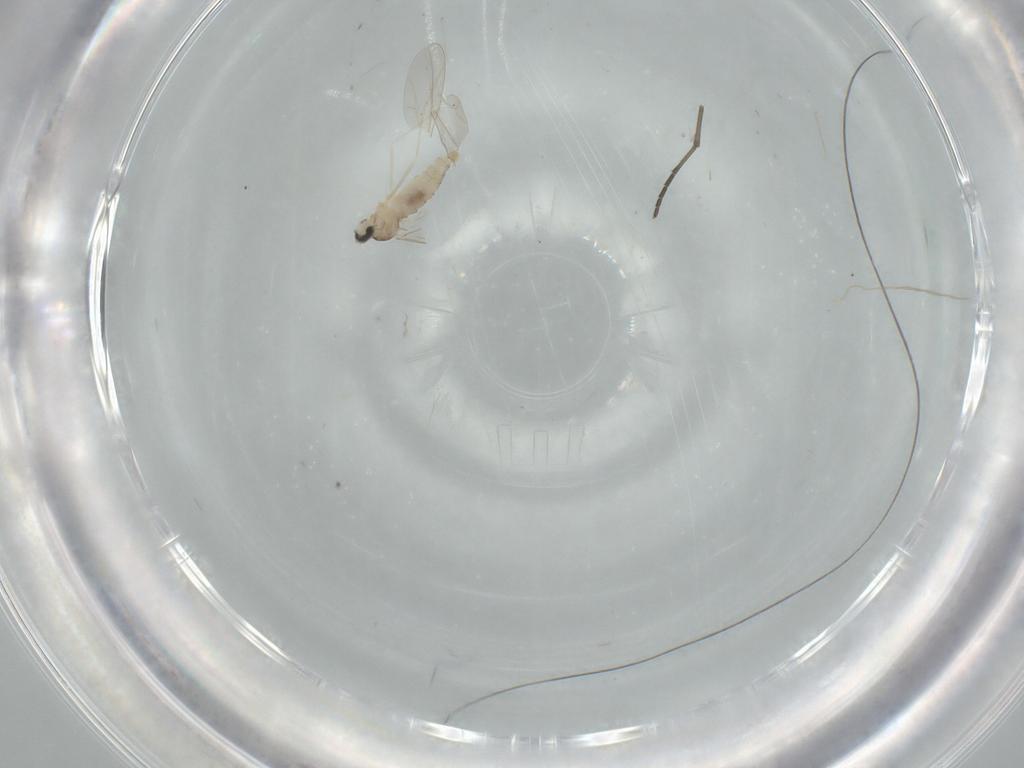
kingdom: Animalia
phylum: Arthropoda
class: Insecta
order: Diptera
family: Cecidomyiidae
